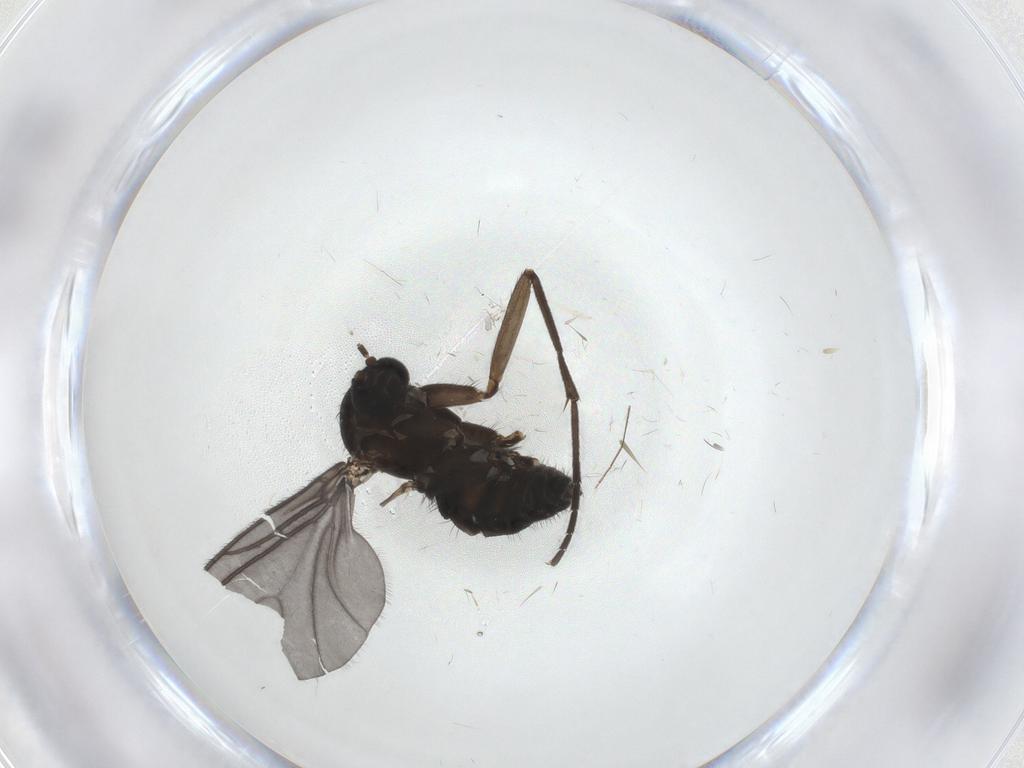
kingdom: Animalia
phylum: Arthropoda
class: Insecta
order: Diptera
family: Sciaridae
